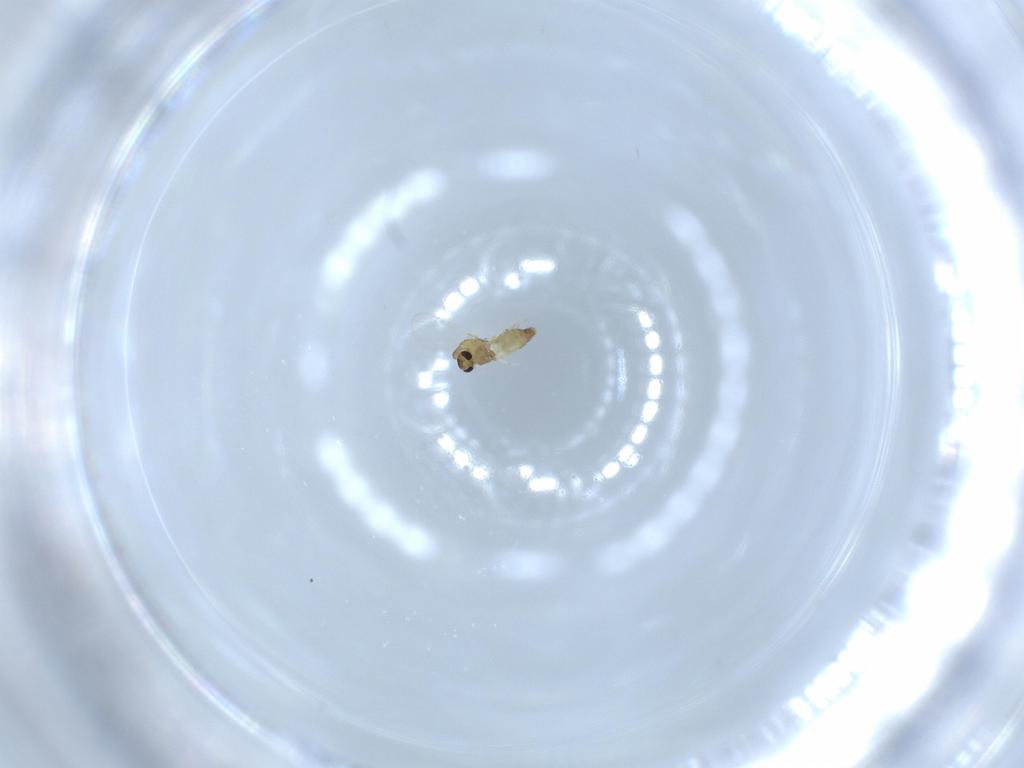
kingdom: Animalia
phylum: Arthropoda
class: Insecta
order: Diptera
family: Chironomidae
